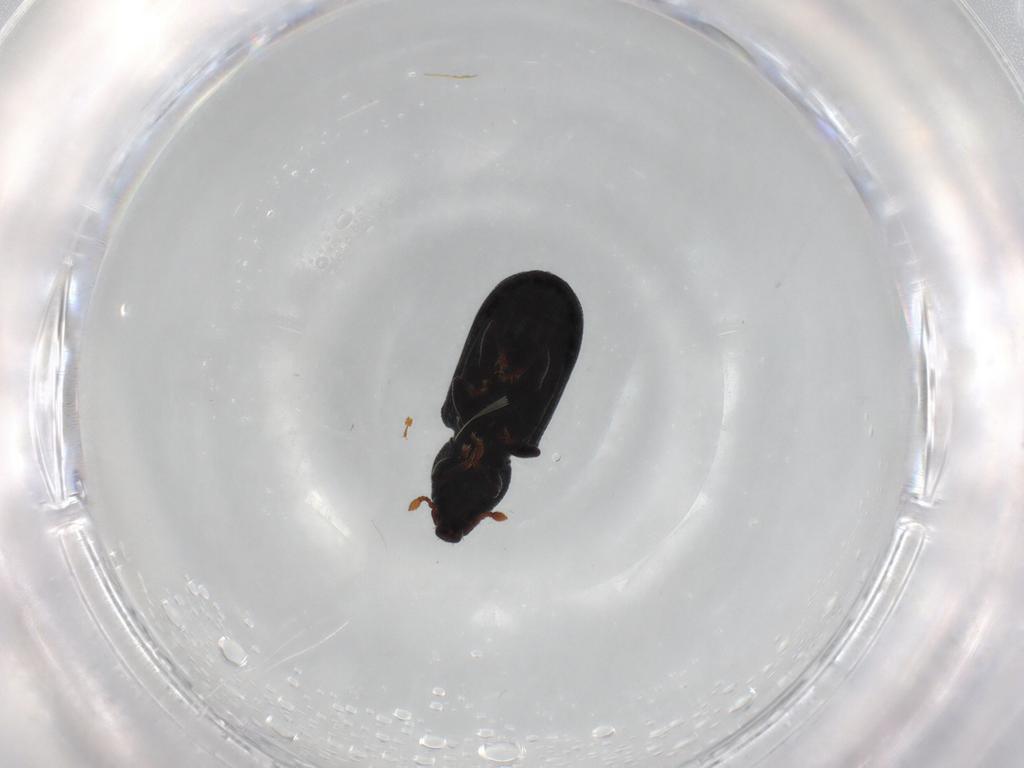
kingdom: Animalia
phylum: Arthropoda
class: Insecta
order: Coleoptera
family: Curculionidae
